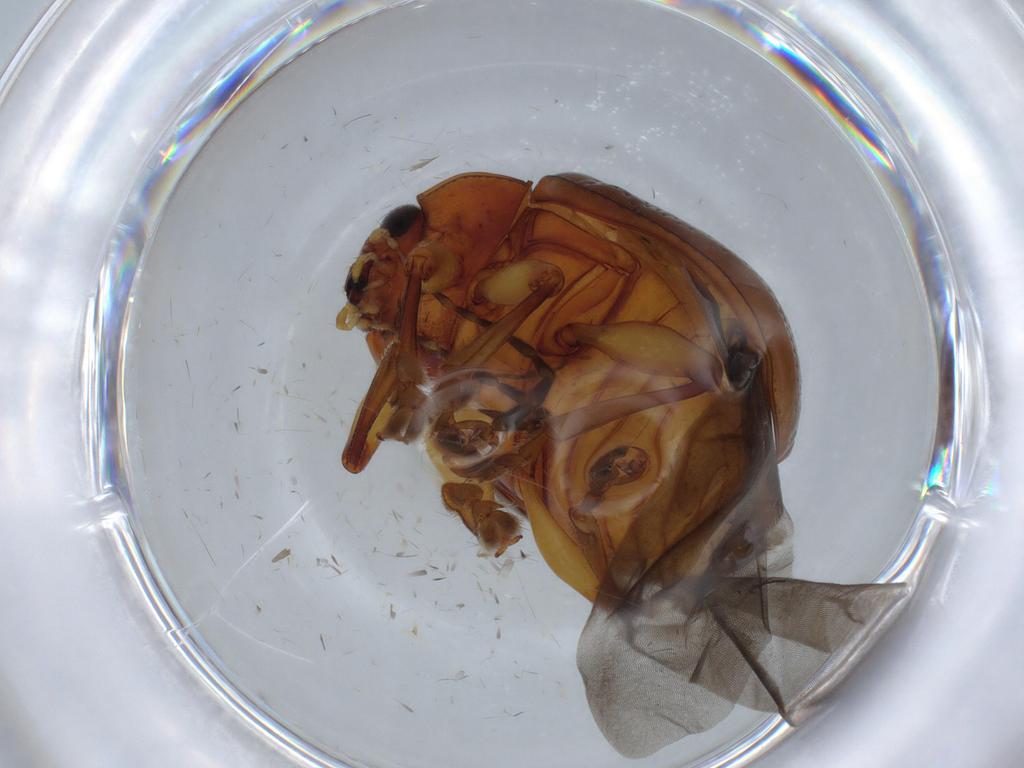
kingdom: Animalia
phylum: Arthropoda
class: Insecta
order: Coleoptera
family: Chrysomelidae
